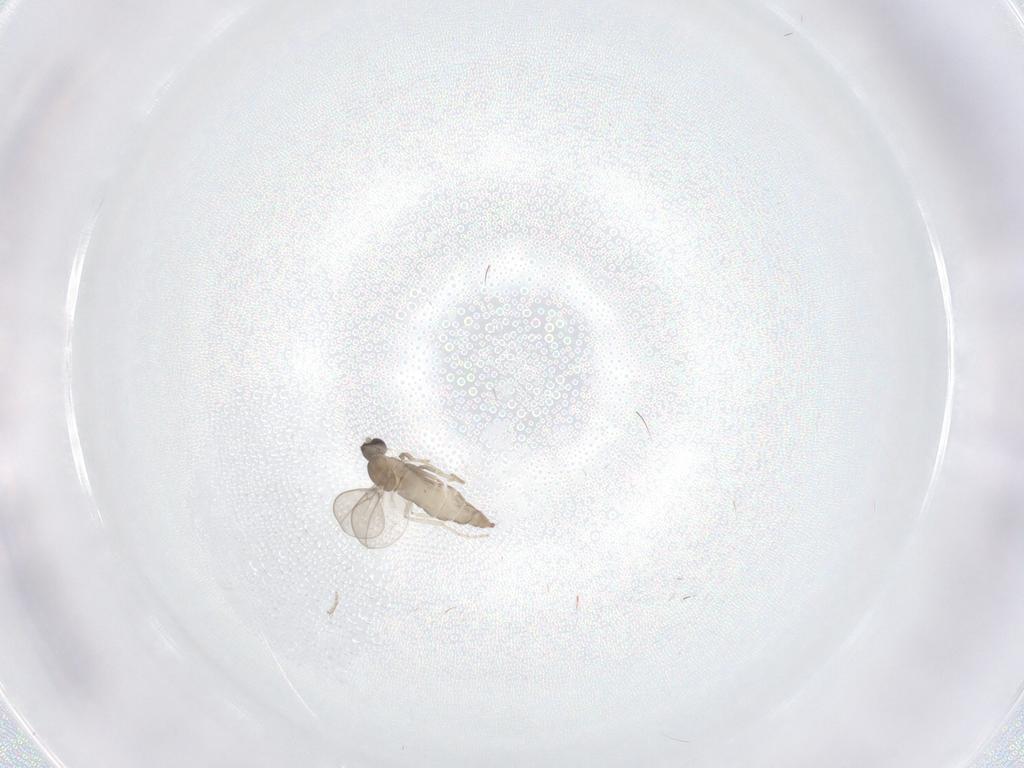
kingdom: Animalia
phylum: Arthropoda
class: Insecta
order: Diptera
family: Cecidomyiidae
